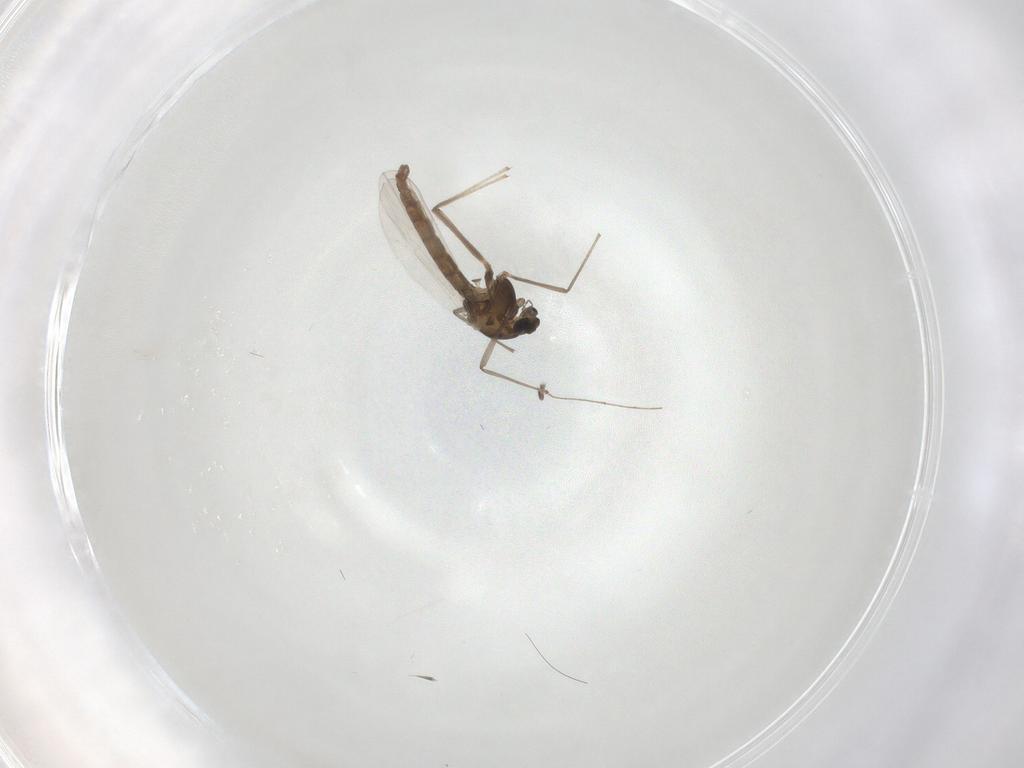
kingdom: Animalia
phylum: Arthropoda
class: Insecta
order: Diptera
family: Chironomidae
